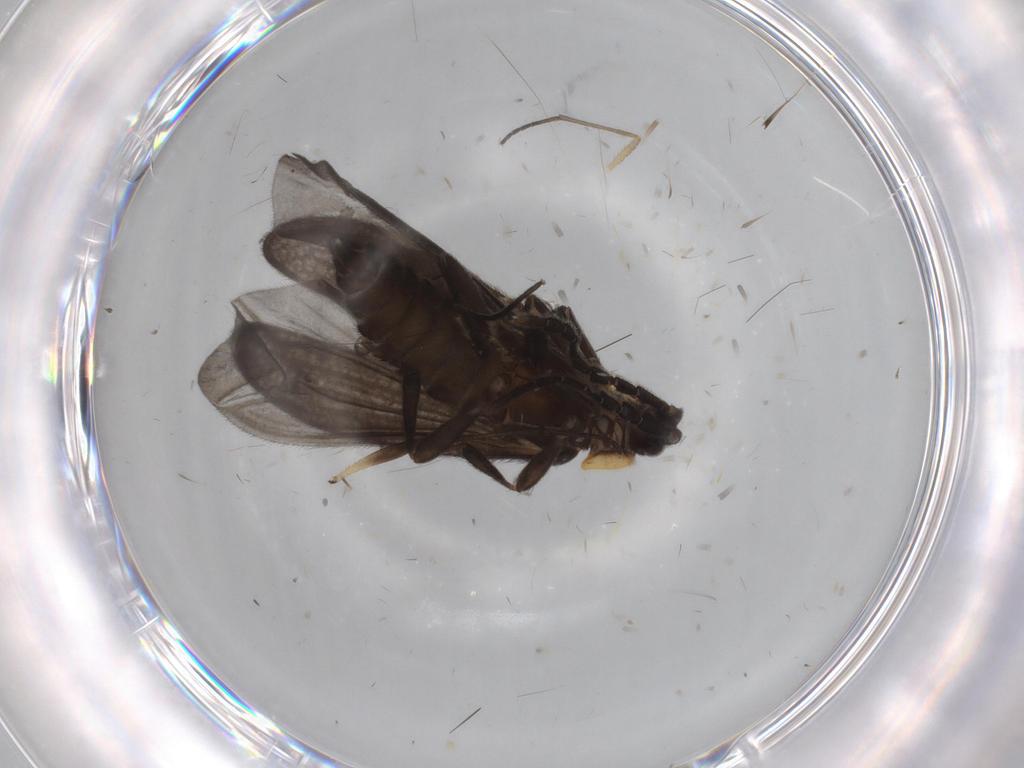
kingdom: Animalia
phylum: Arthropoda
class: Insecta
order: Coleoptera
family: Lycidae
